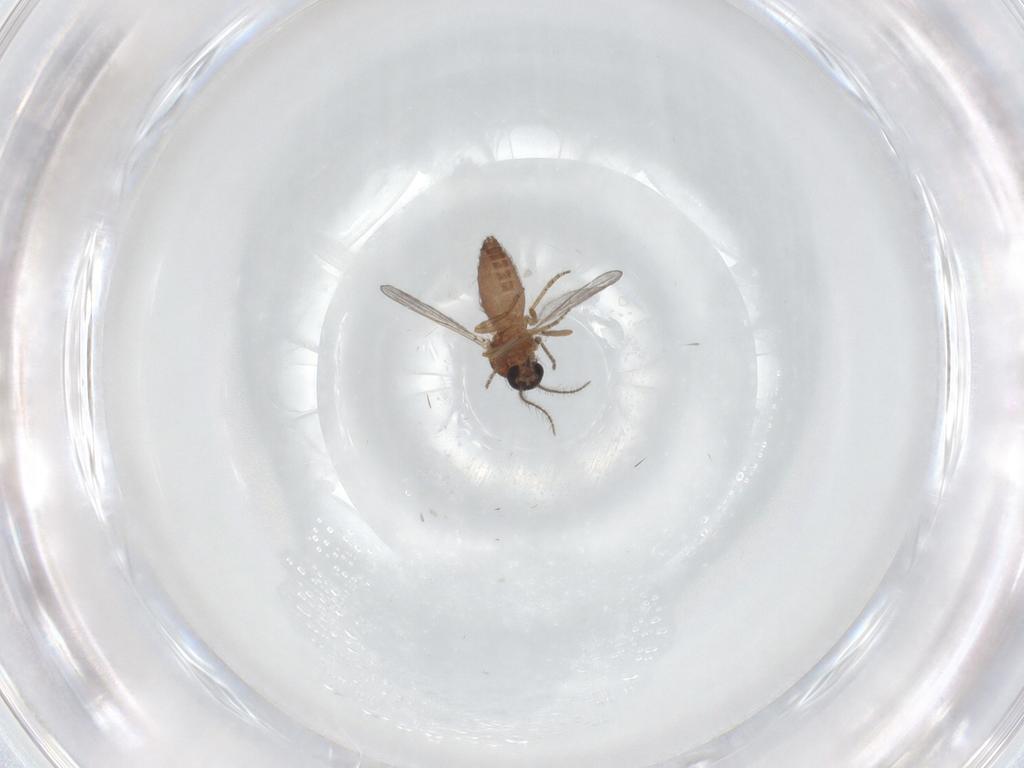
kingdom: Animalia
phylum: Arthropoda
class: Insecta
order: Diptera
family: Ceratopogonidae
